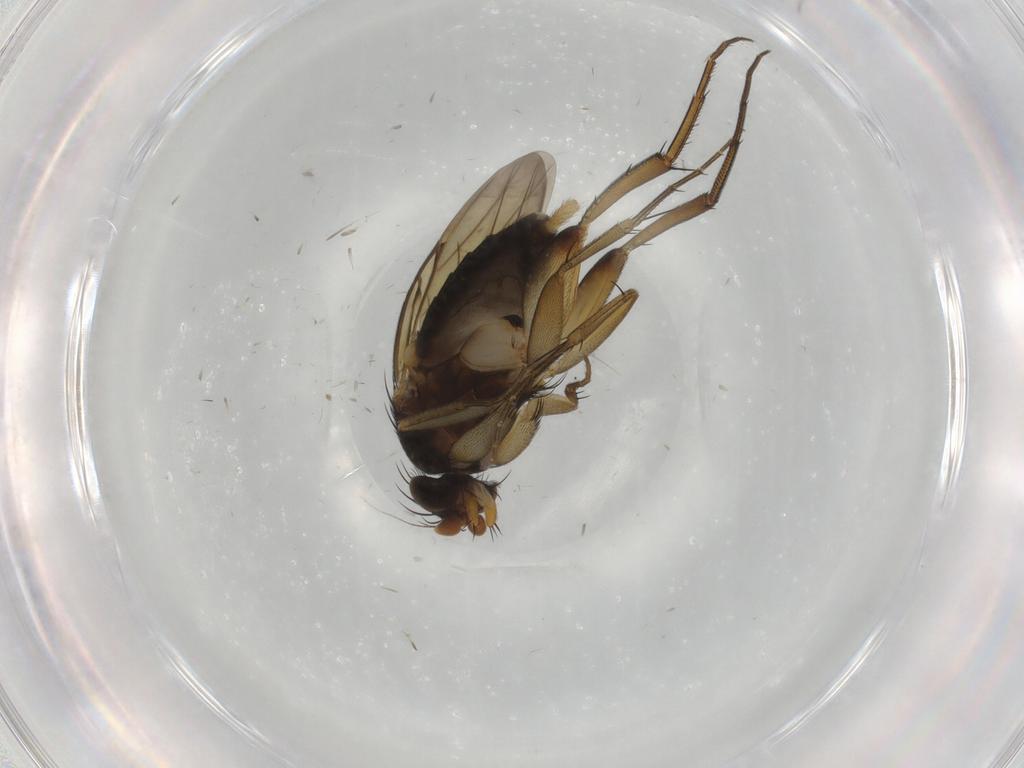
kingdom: Animalia
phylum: Arthropoda
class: Insecta
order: Diptera
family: Phoridae
